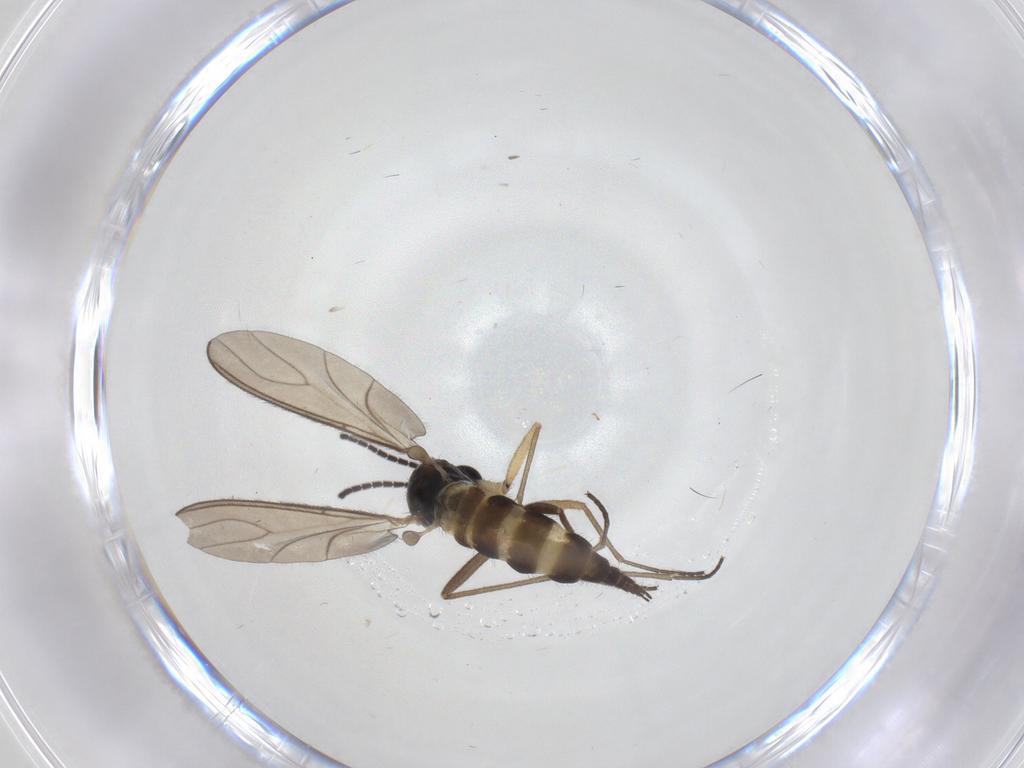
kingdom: Animalia
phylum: Arthropoda
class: Insecta
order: Diptera
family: Sciaridae
